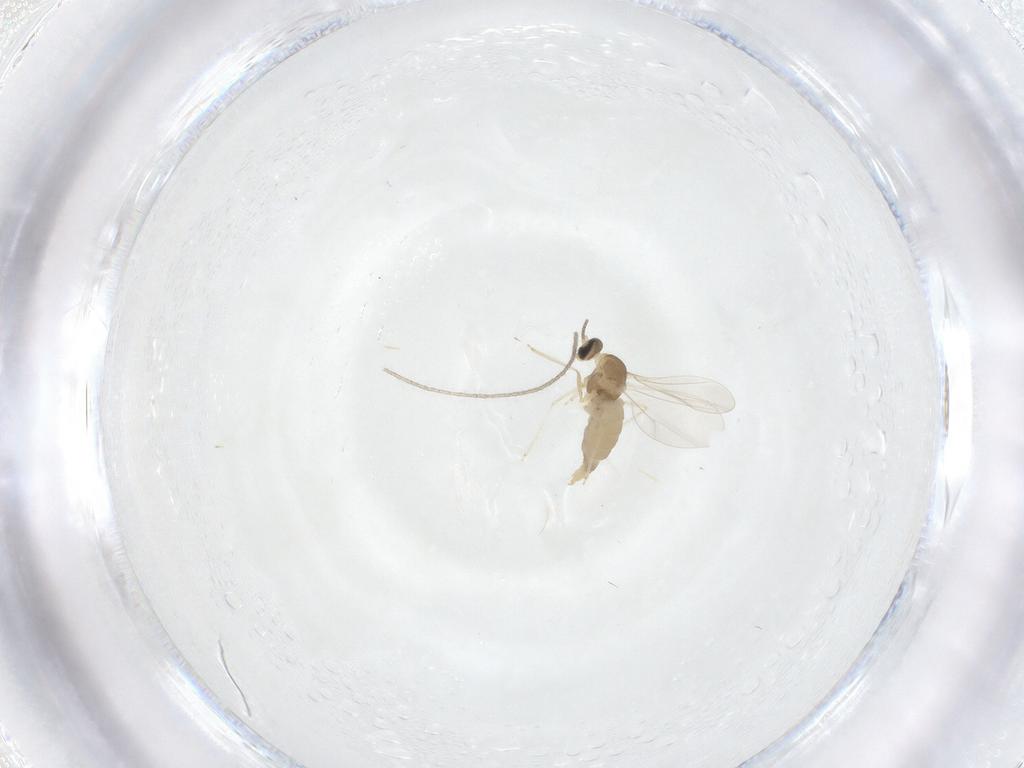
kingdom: Animalia
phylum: Arthropoda
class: Insecta
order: Diptera
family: Cecidomyiidae
